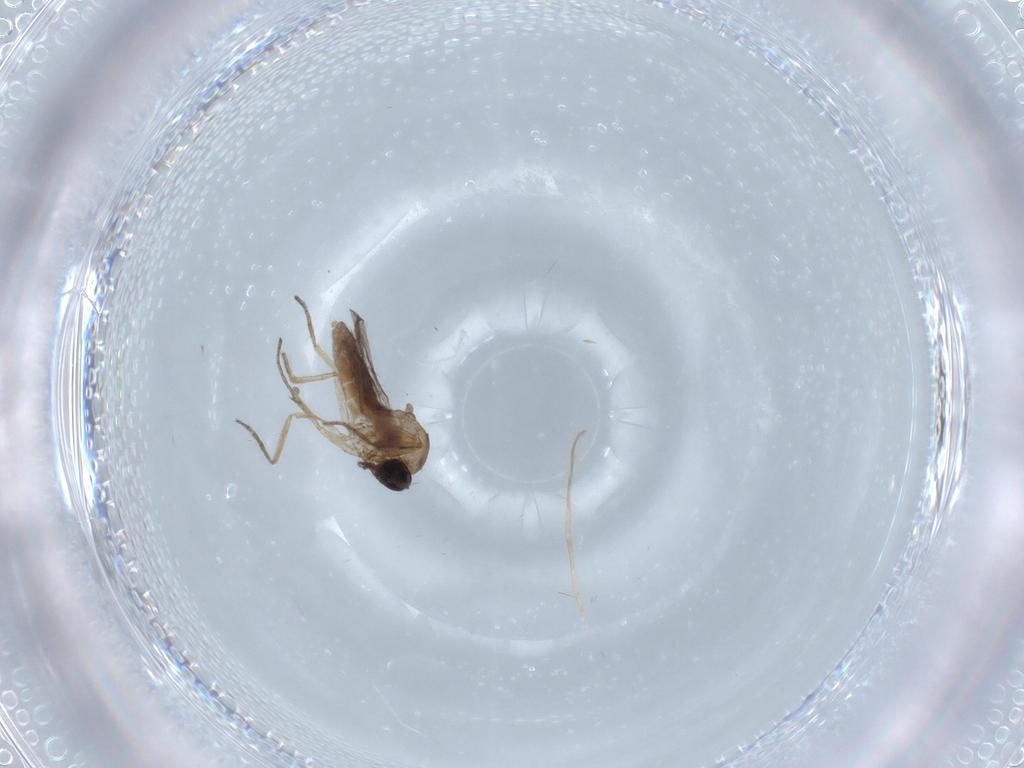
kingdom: Animalia
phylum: Arthropoda
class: Insecta
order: Diptera
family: Ceratopogonidae
